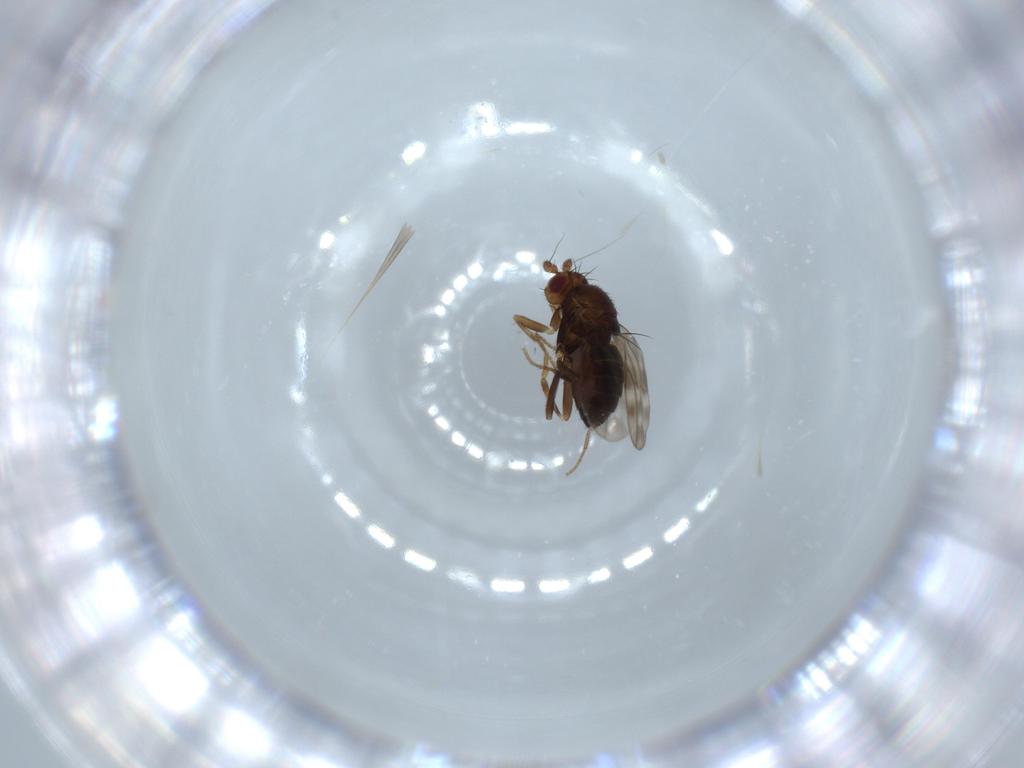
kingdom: Animalia
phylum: Arthropoda
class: Insecta
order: Diptera
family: Sphaeroceridae
